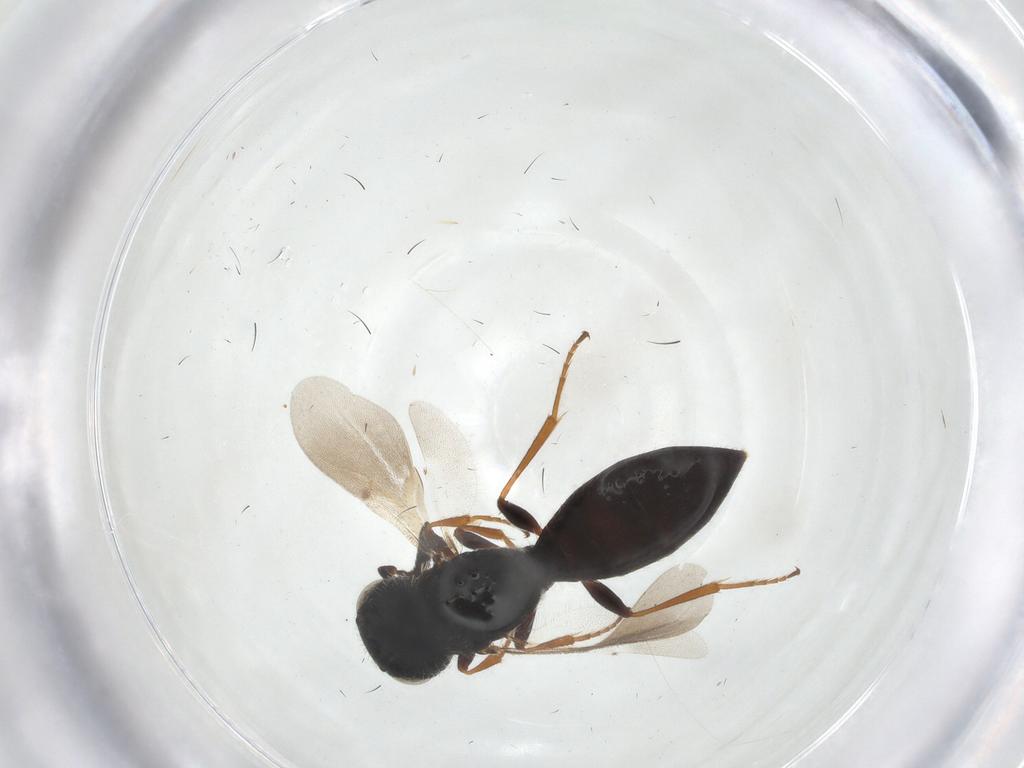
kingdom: Animalia
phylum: Arthropoda
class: Insecta
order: Hymenoptera
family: Scelionidae
